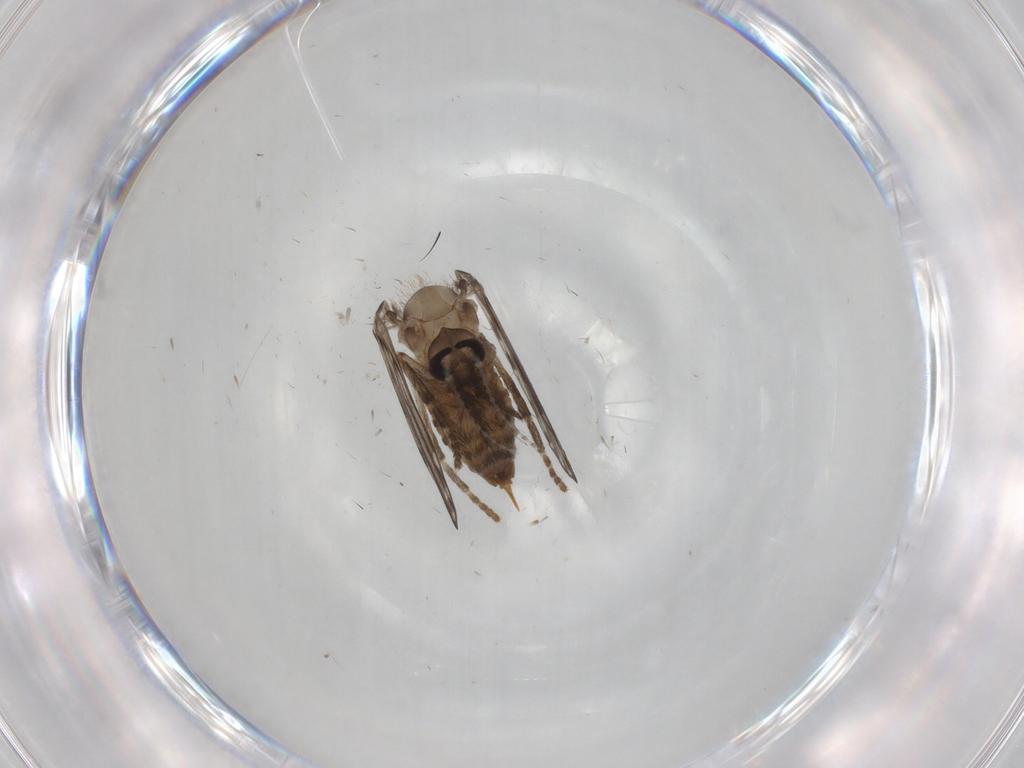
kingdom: Animalia
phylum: Arthropoda
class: Insecta
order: Diptera
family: Psychodidae
